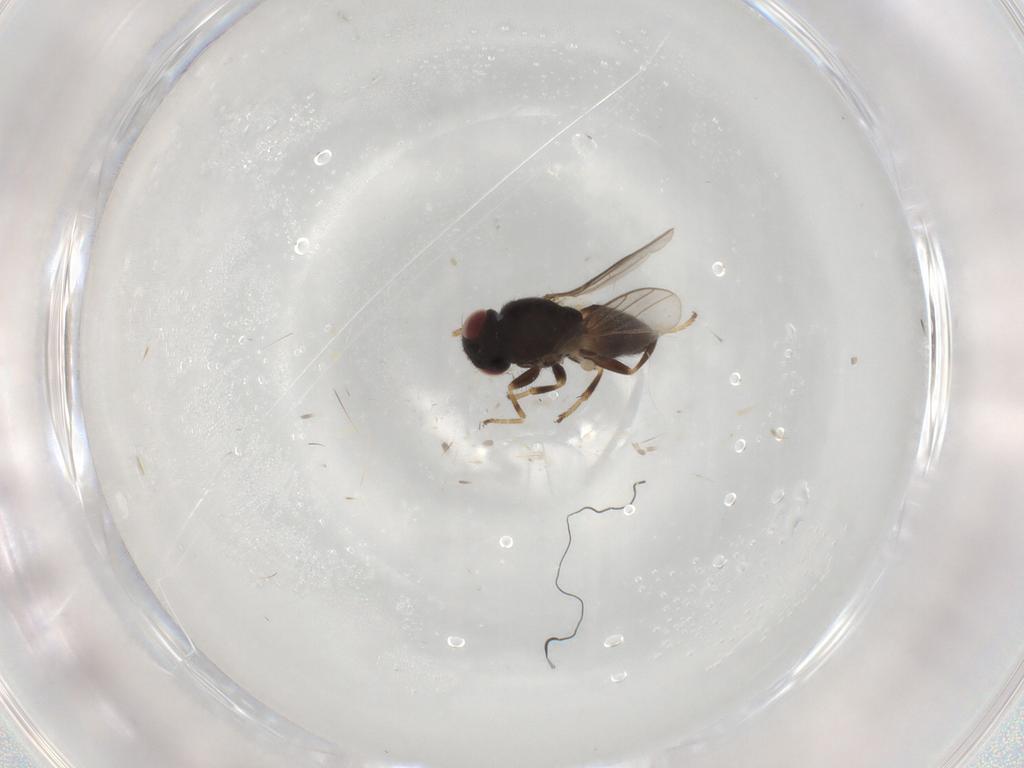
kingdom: Animalia
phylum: Arthropoda
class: Insecta
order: Diptera
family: Chloropidae
